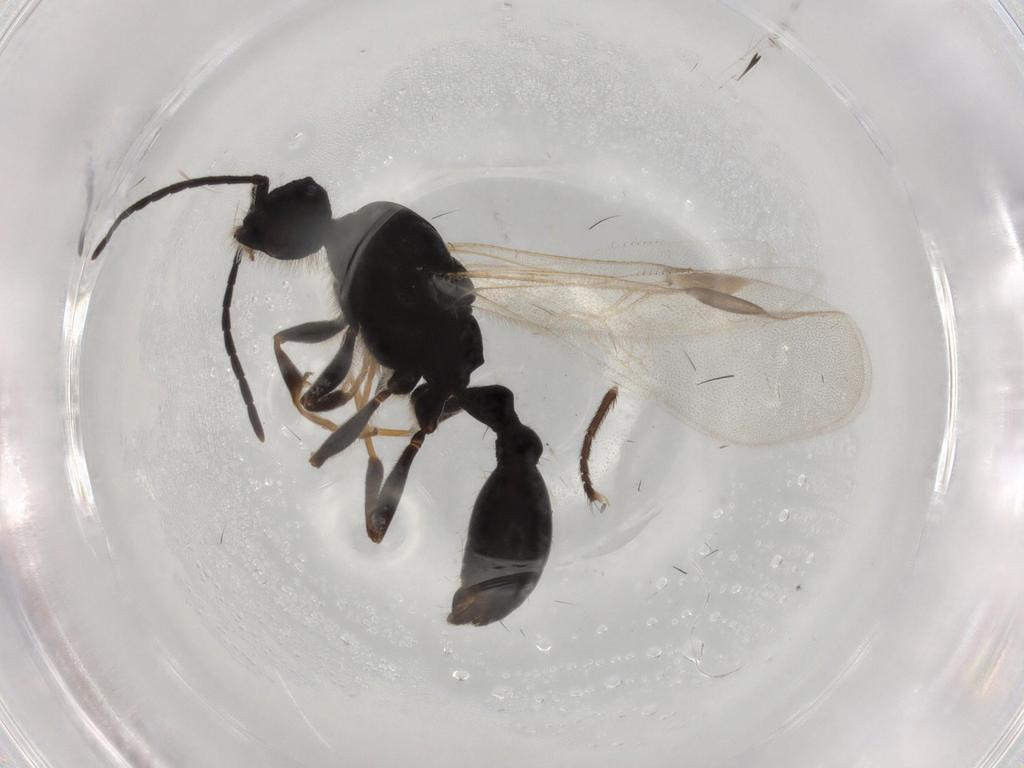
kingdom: Animalia
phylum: Arthropoda
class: Insecta
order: Hymenoptera
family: Formicidae
